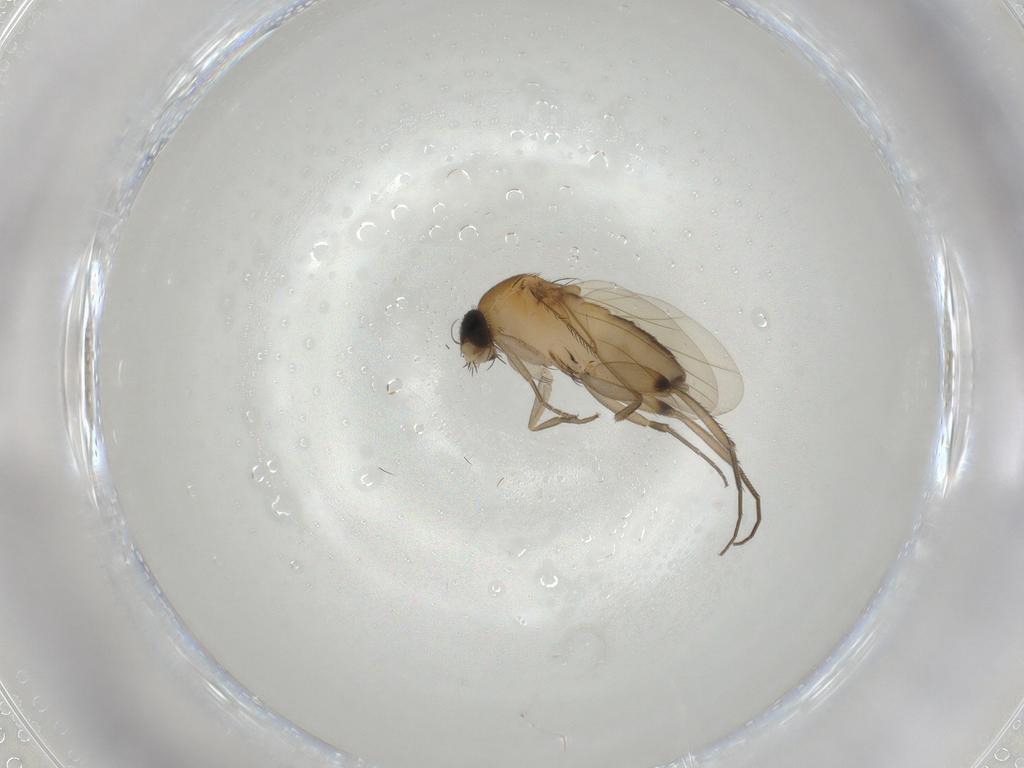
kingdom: Animalia
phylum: Arthropoda
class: Insecta
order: Diptera
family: Phoridae
